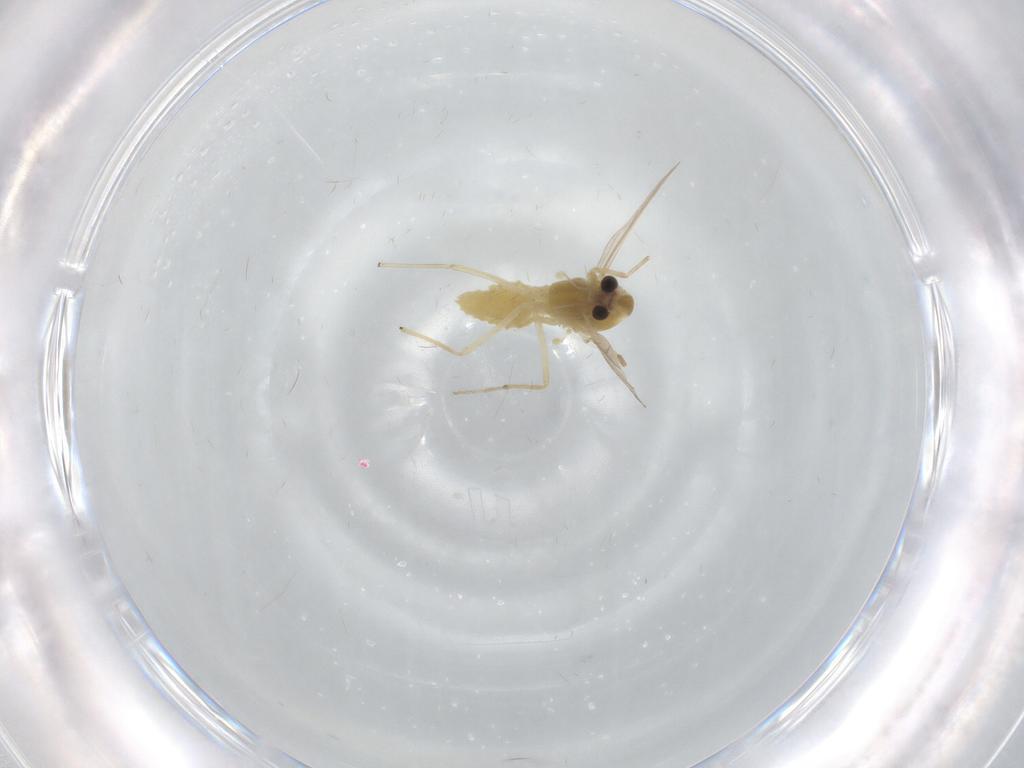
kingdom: Animalia
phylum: Arthropoda
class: Insecta
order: Diptera
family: Chironomidae
